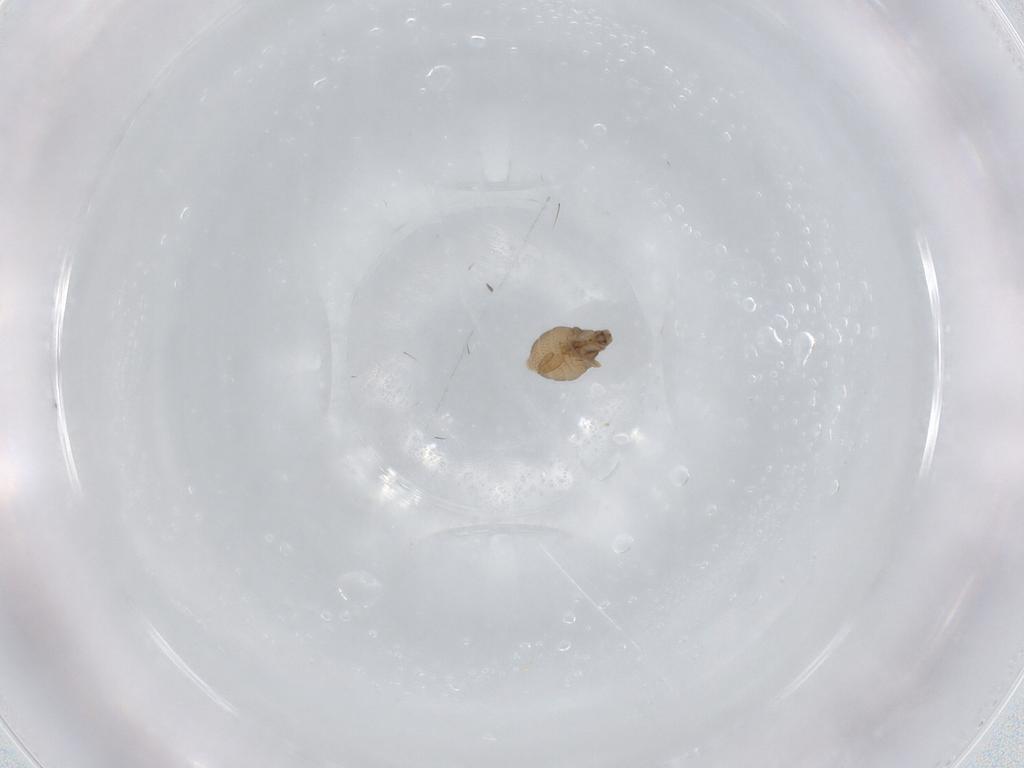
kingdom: Animalia
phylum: Arthropoda
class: Insecta
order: Diptera
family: Phoridae
